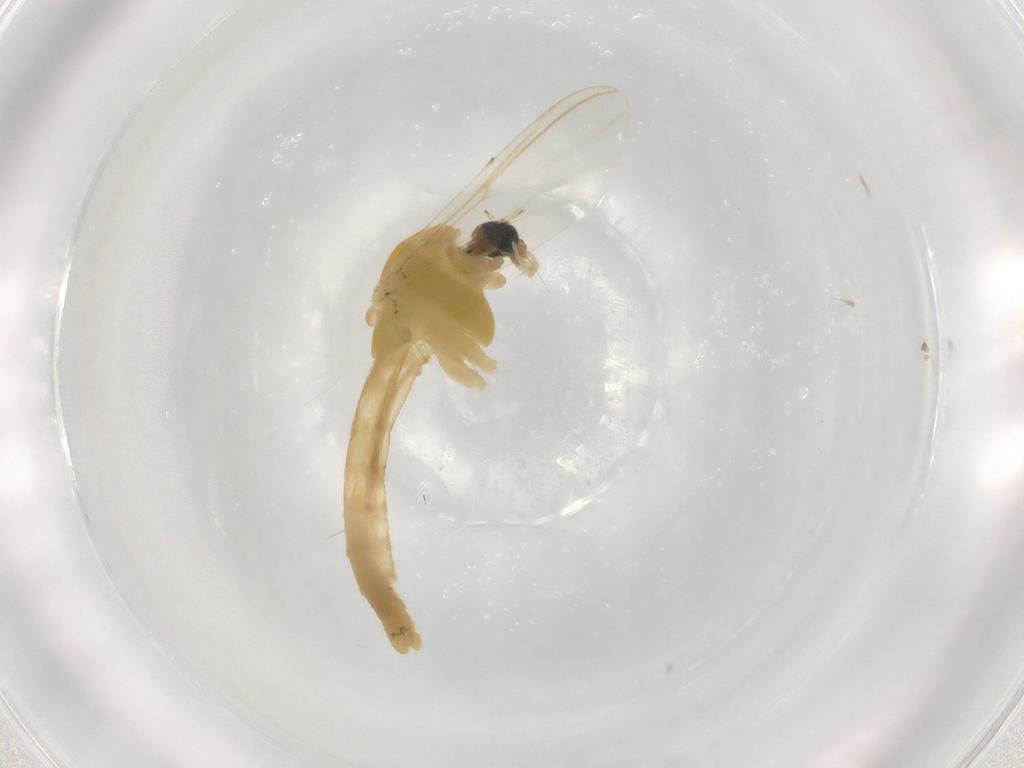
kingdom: Animalia
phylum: Arthropoda
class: Insecta
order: Diptera
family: Chironomidae
